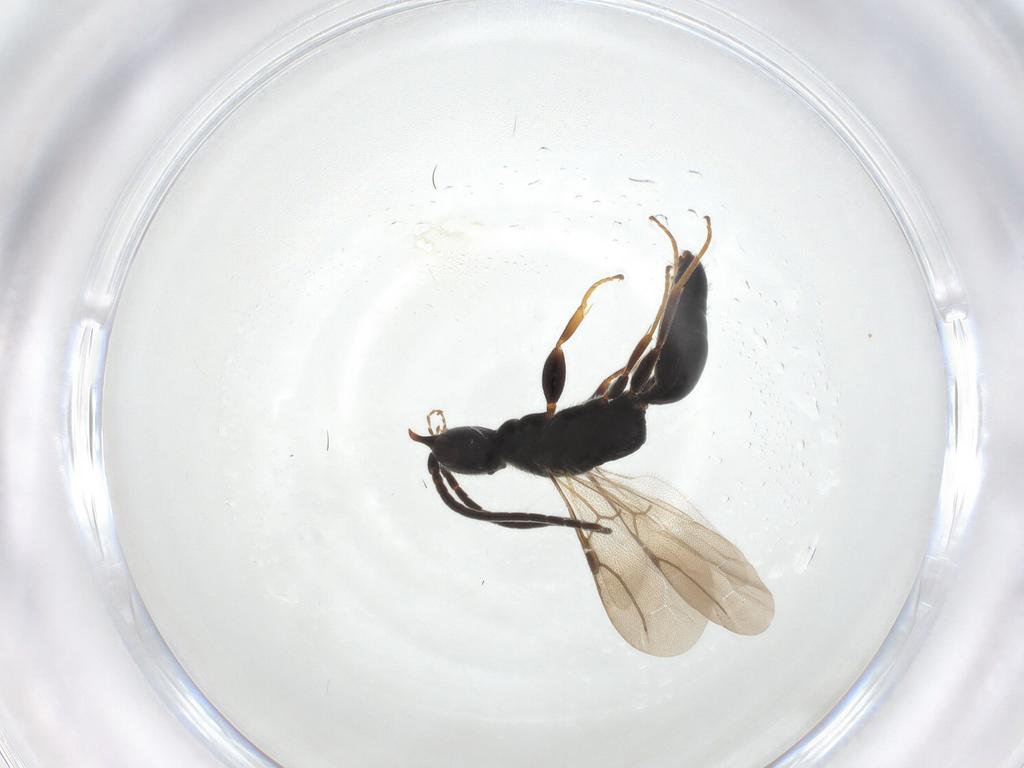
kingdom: Animalia
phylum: Arthropoda
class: Insecta
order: Hymenoptera
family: Bethylidae
